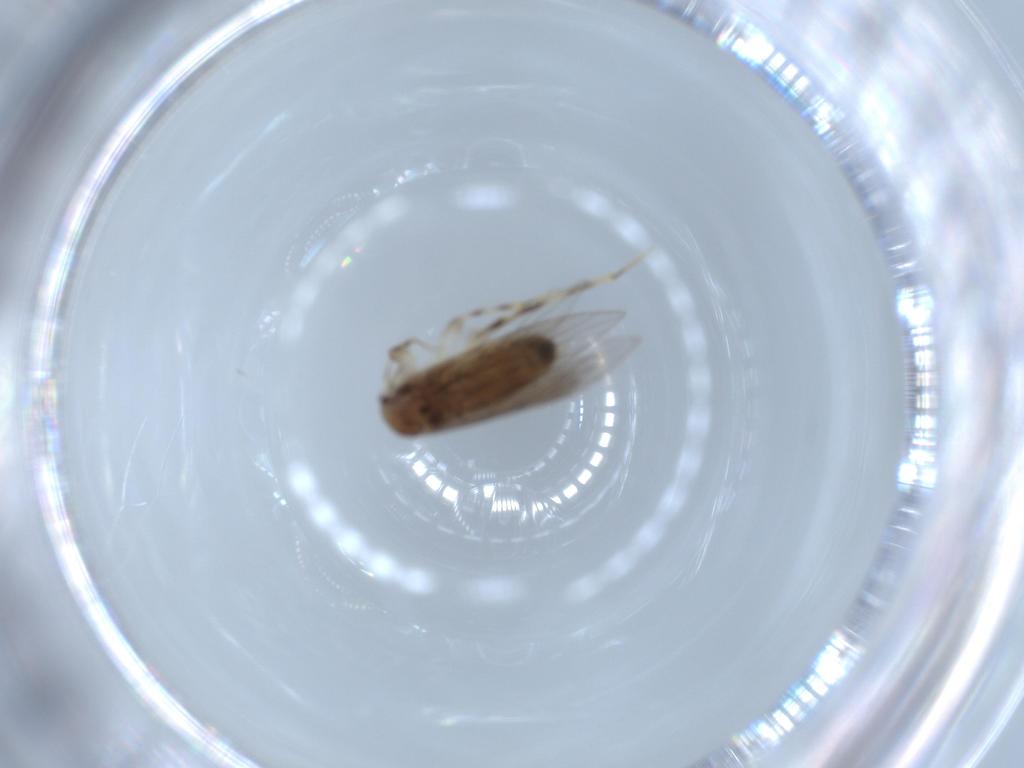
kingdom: Animalia
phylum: Arthropoda
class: Insecta
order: Psocodea
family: Lepidopsocidae
